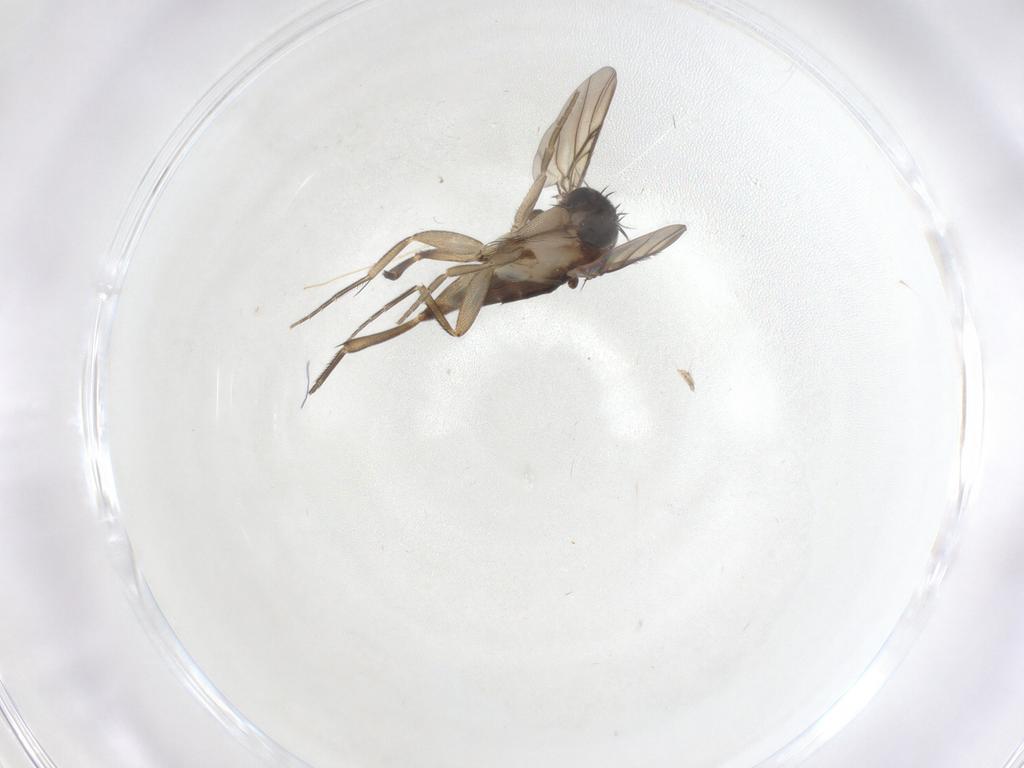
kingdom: Animalia
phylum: Arthropoda
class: Insecta
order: Diptera
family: Phoridae
